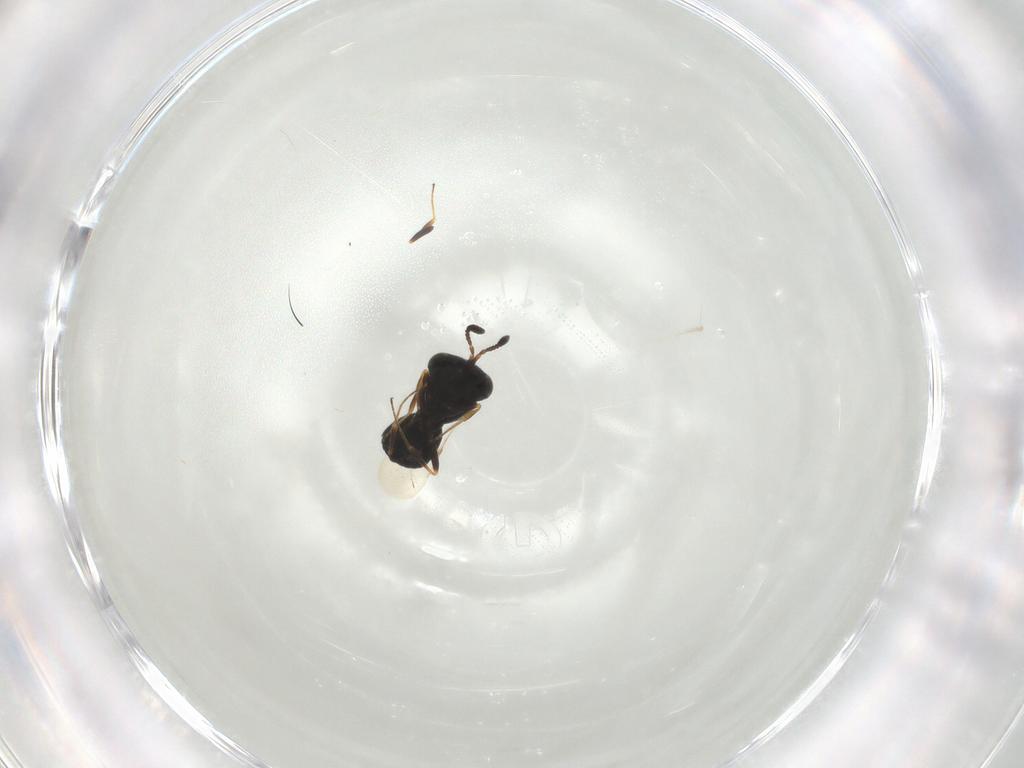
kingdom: Animalia
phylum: Arthropoda
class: Insecta
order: Hymenoptera
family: Scelionidae
